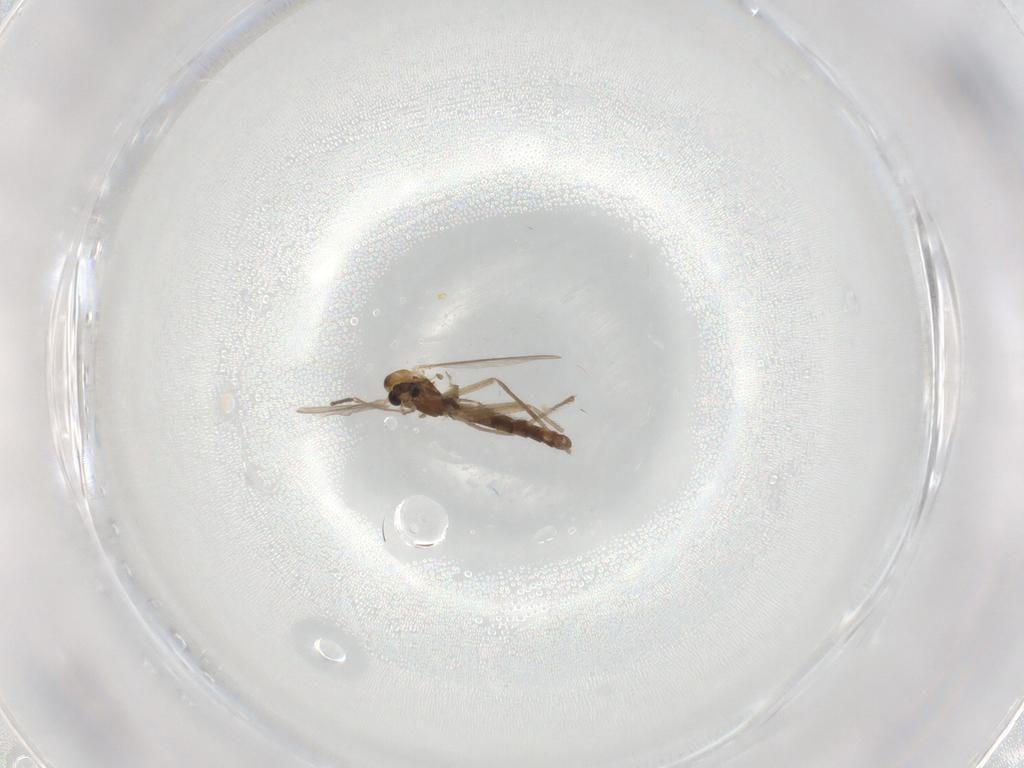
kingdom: Animalia
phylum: Arthropoda
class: Insecta
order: Diptera
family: Chironomidae
